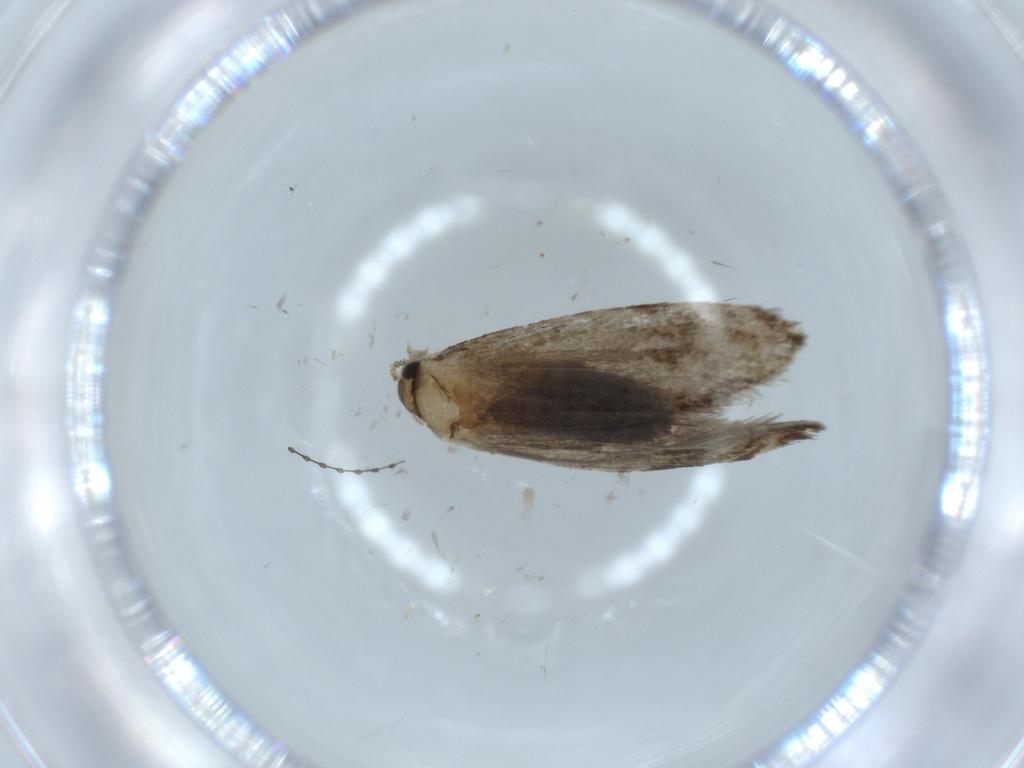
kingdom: Animalia
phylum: Arthropoda
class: Insecta
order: Lepidoptera
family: Tineidae
